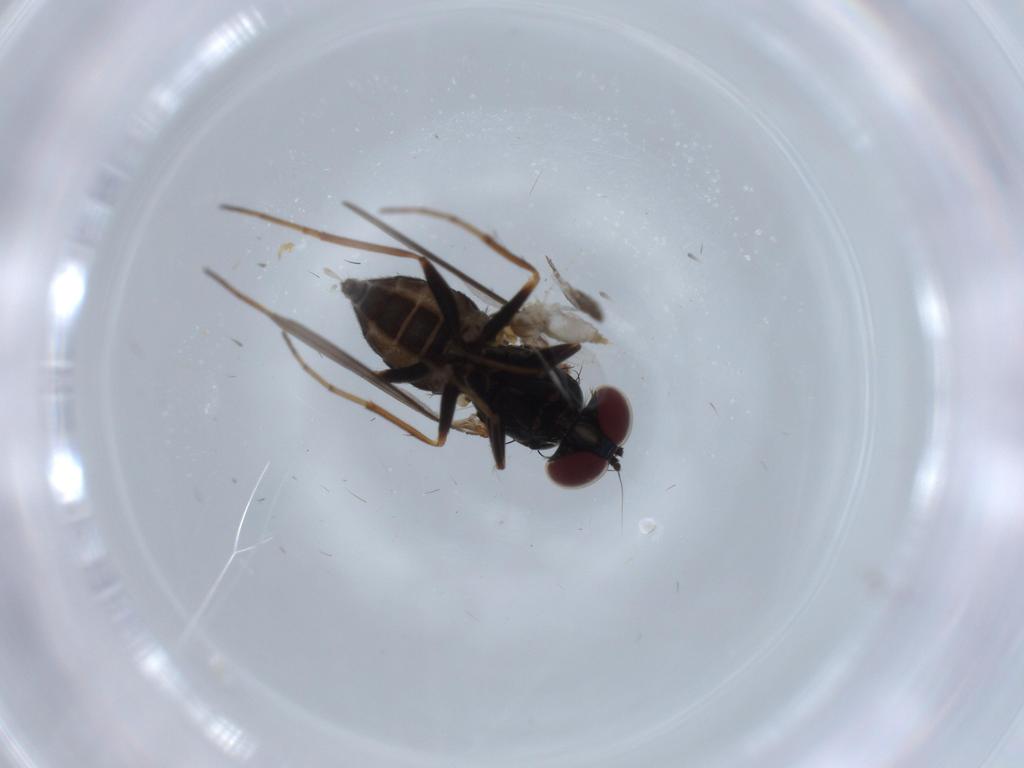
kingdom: Animalia
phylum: Arthropoda
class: Insecta
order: Diptera
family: Dolichopodidae
